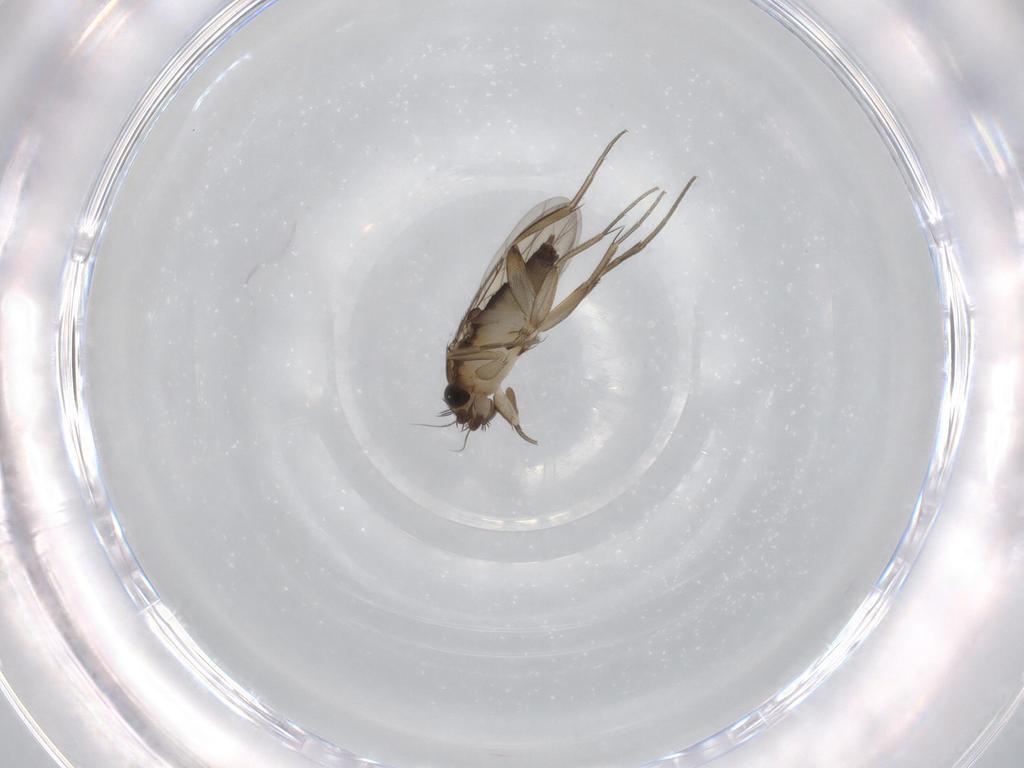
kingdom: Animalia
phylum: Arthropoda
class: Insecta
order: Diptera
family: Phoridae
